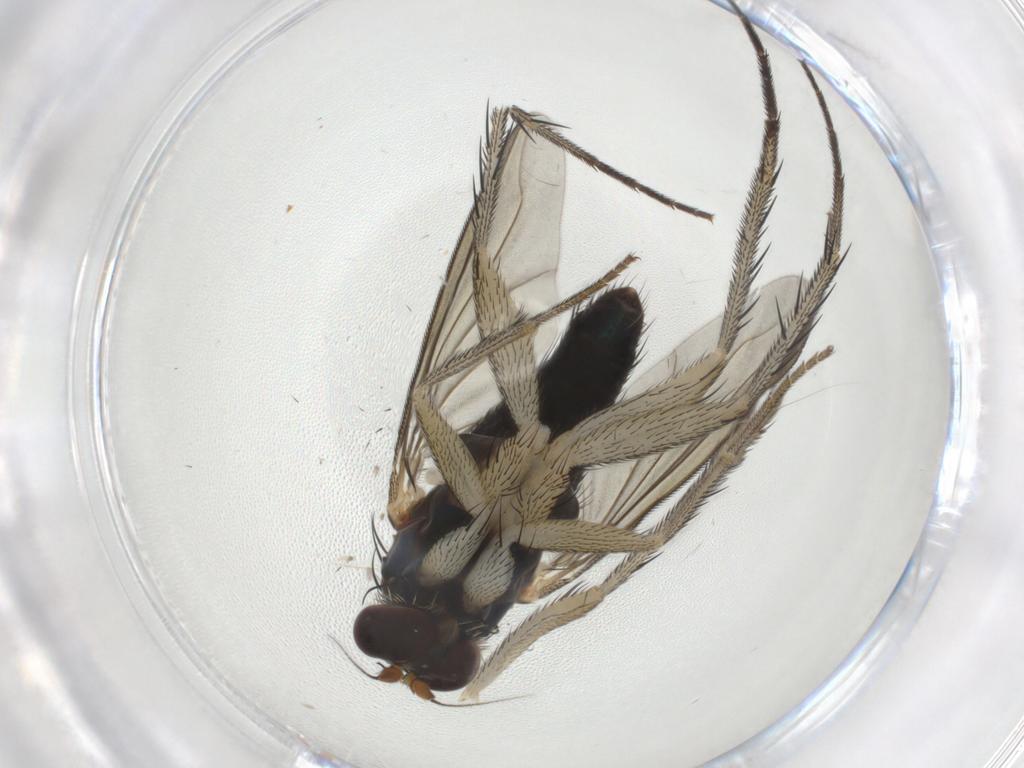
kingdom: Animalia
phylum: Arthropoda
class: Insecta
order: Diptera
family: Dolichopodidae
